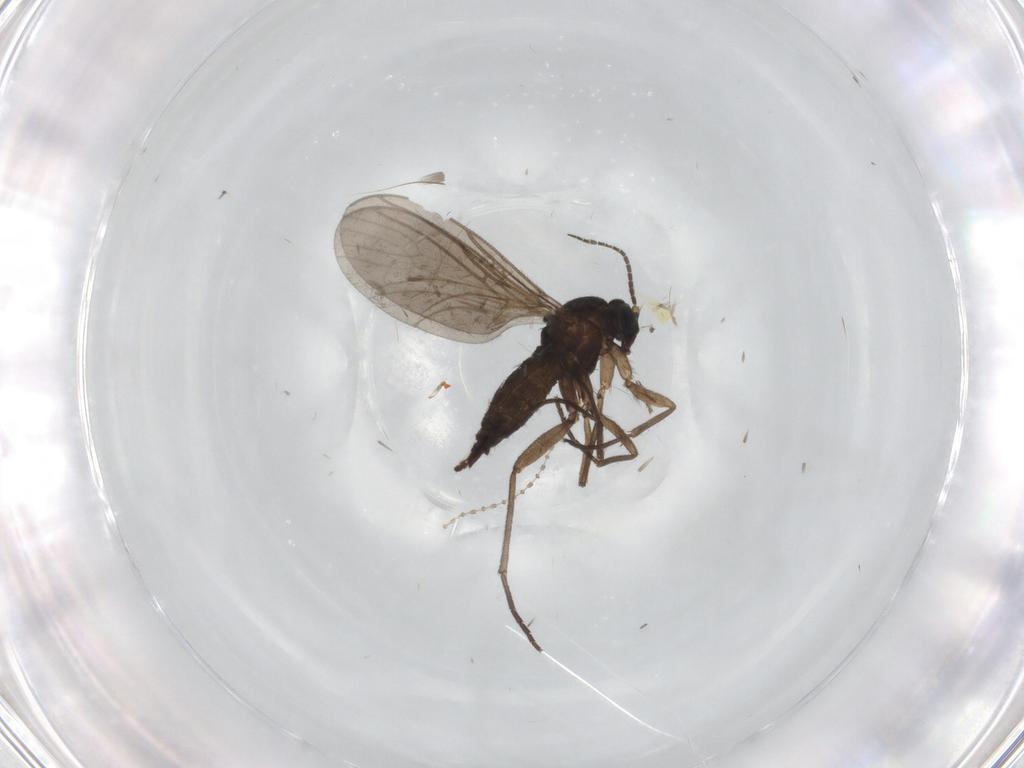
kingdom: Animalia
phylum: Arthropoda
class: Insecta
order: Diptera
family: Sciaridae
